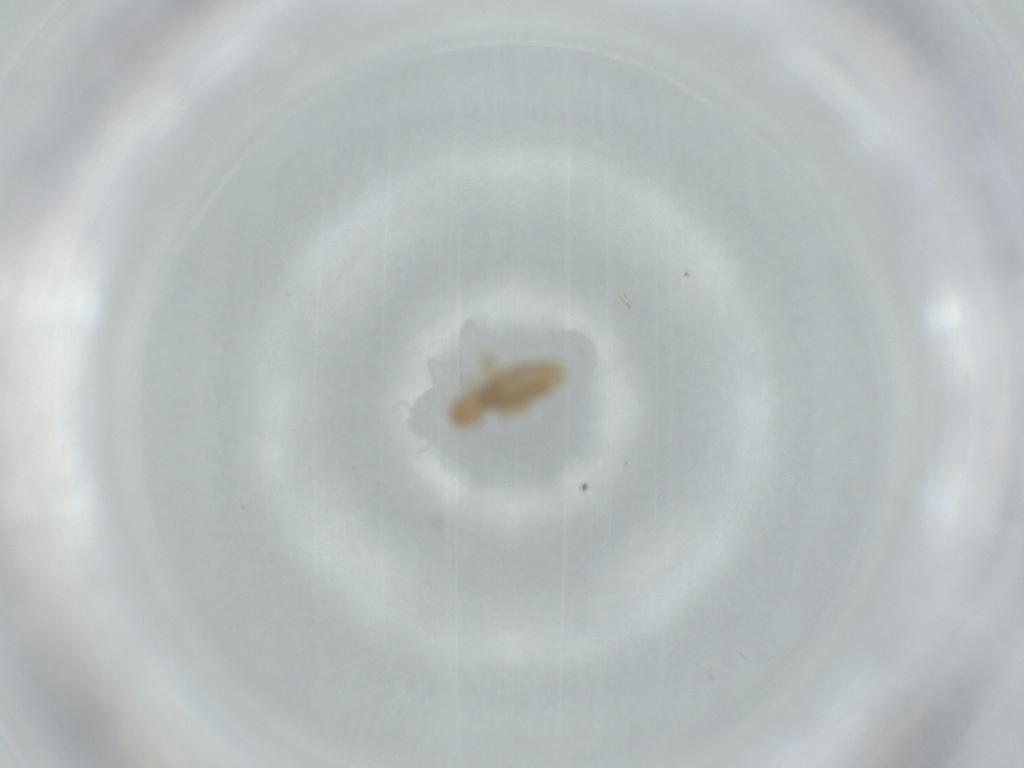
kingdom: Animalia
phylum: Arthropoda
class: Insecta
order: Psocodea
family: Liposcelididae
